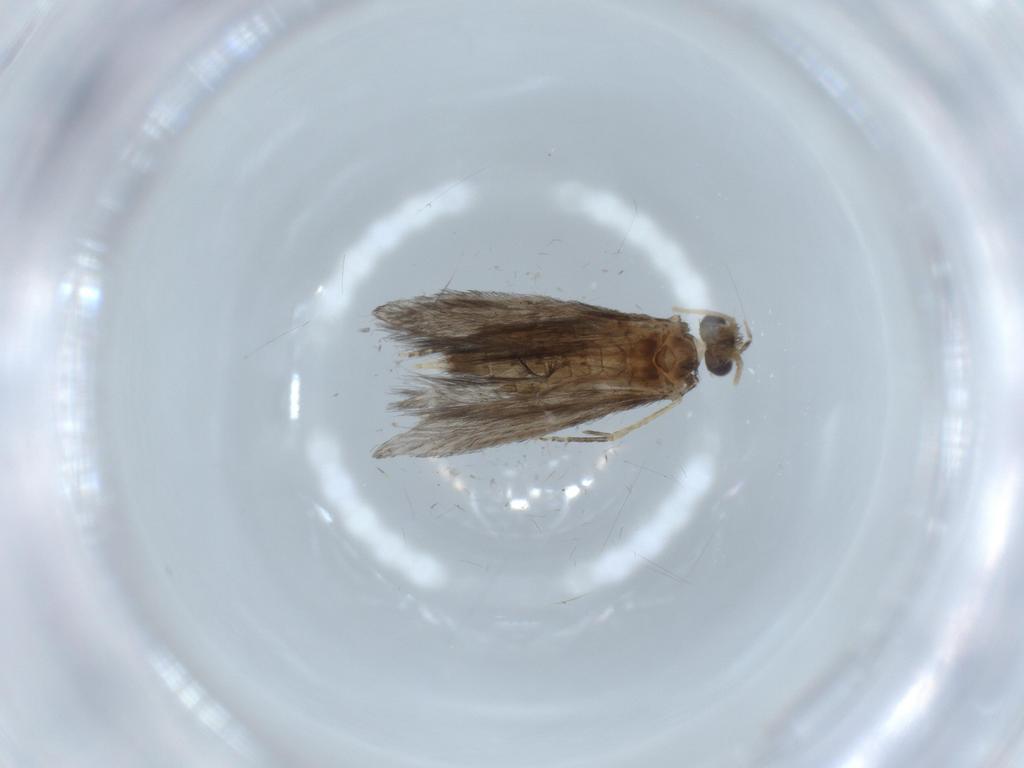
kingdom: Animalia
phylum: Arthropoda
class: Insecta
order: Trichoptera
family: Hydroptilidae
